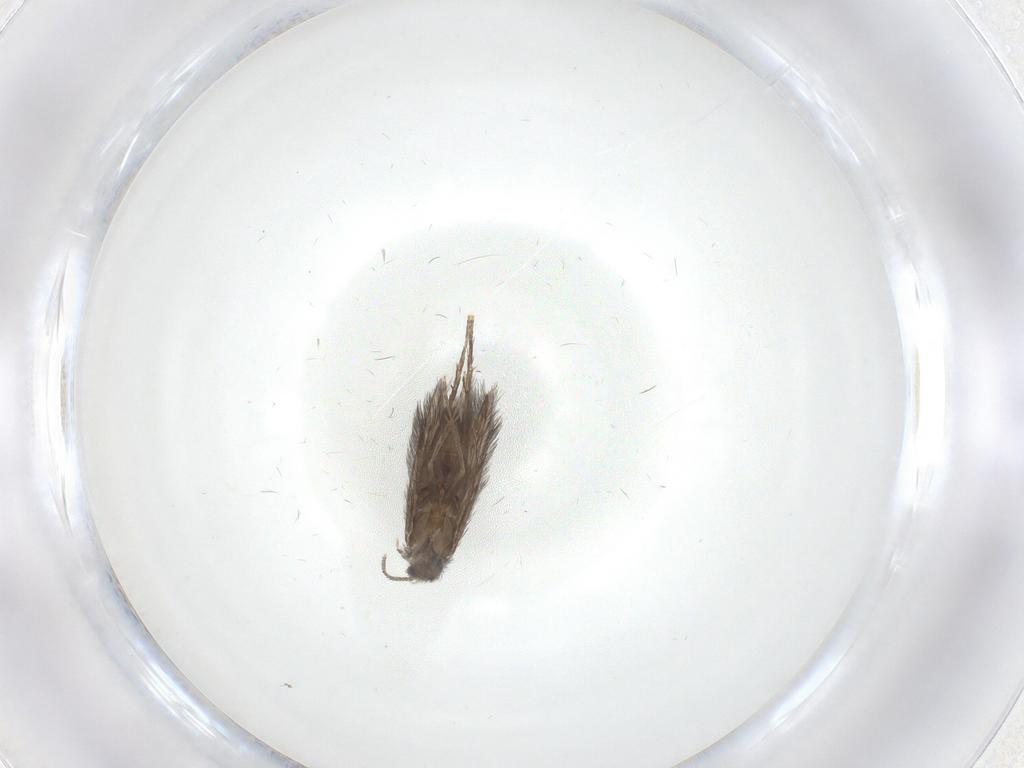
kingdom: Animalia
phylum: Arthropoda
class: Insecta
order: Trichoptera
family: Hydroptilidae
